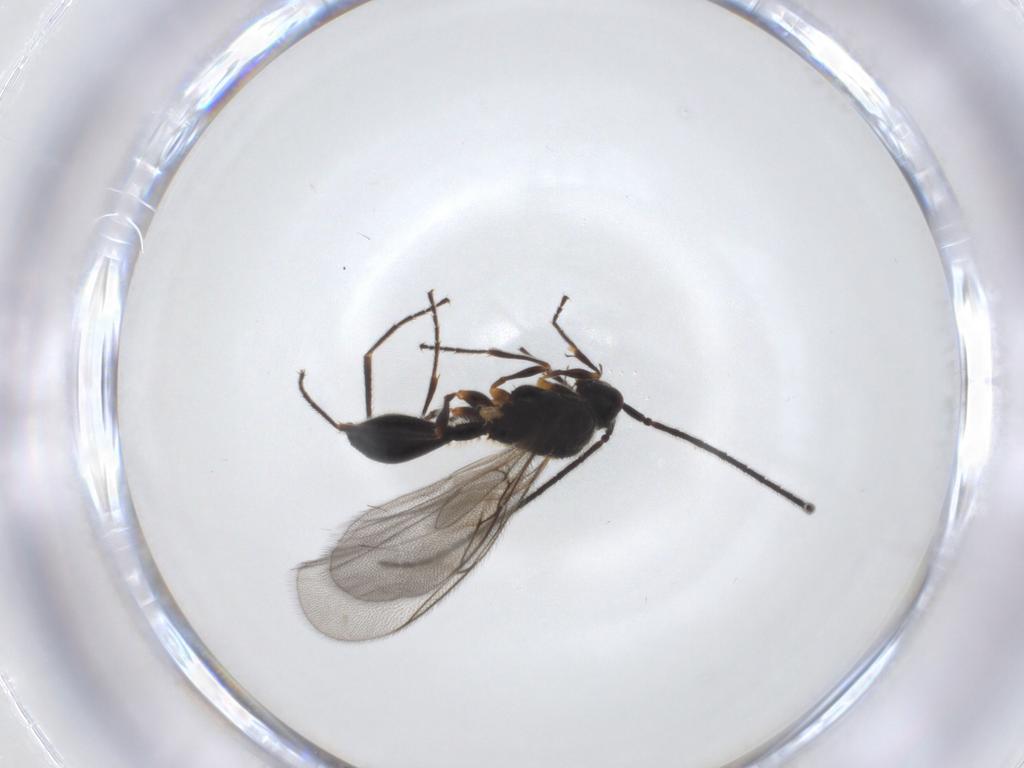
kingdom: Animalia
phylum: Arthropoda
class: Insecta
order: Hymenoptera
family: Diapriidae
